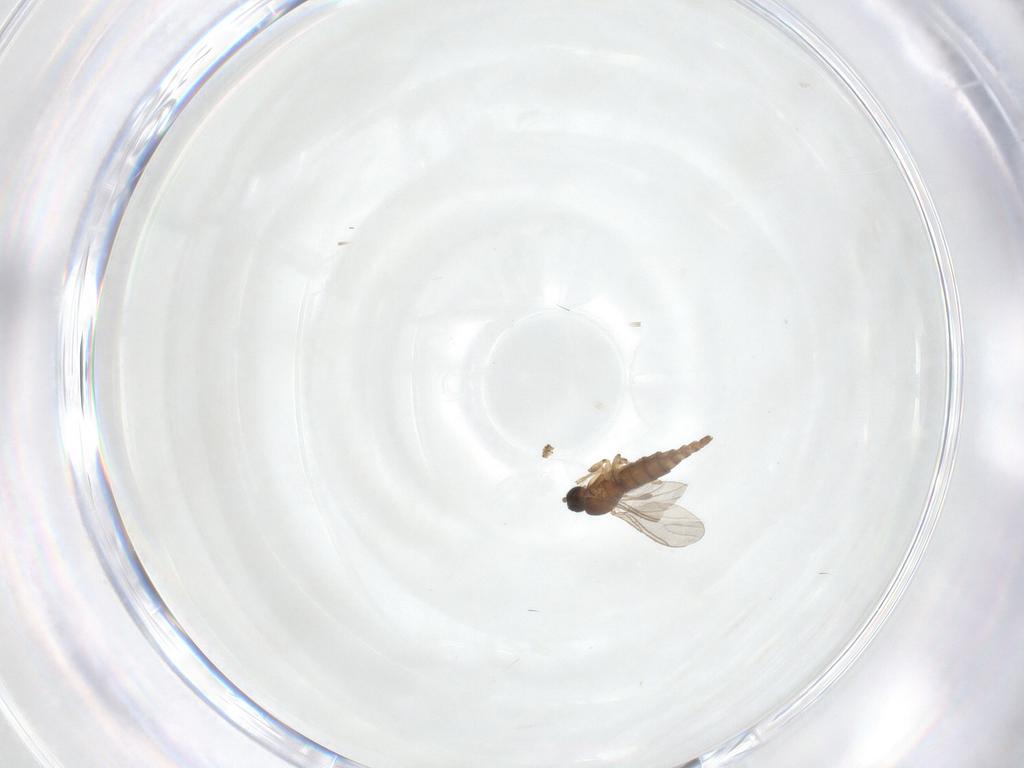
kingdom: Animalia
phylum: Arthropoda
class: Insecta
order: Diptera
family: Sciaridae
